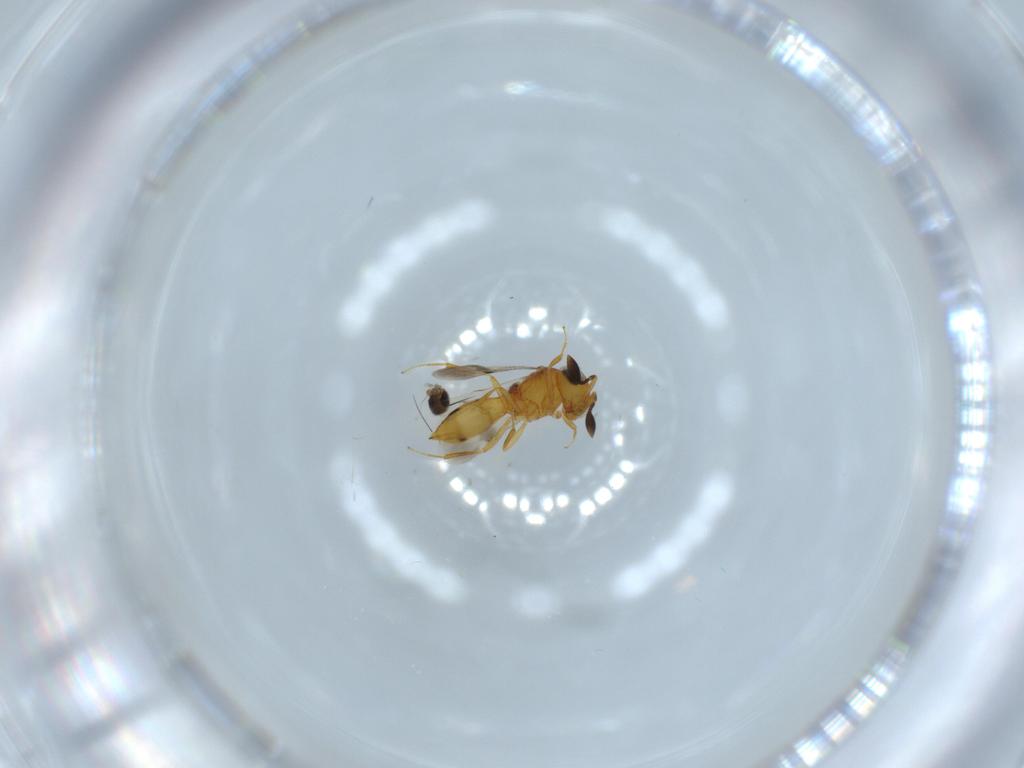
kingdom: Animalia
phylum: Arthropoda
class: Insecta
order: Hymenoptera
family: Scelionidae
